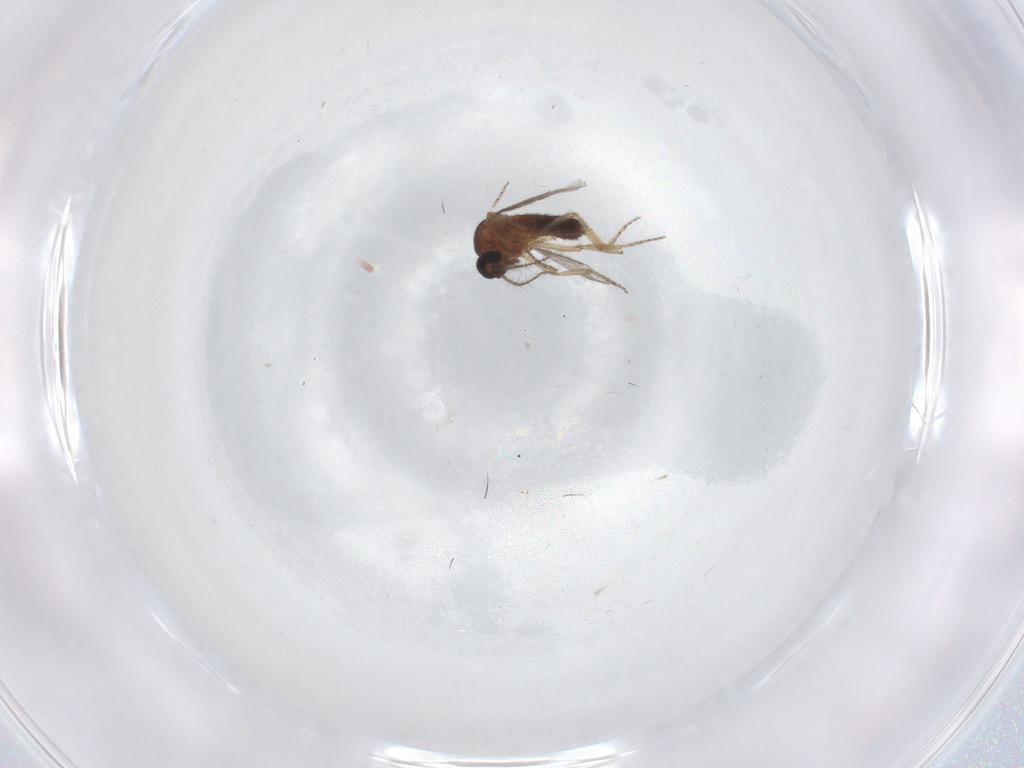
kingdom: Animalia
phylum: Arthropoda
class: Insecta
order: Diptera
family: Ceratopogonidae
